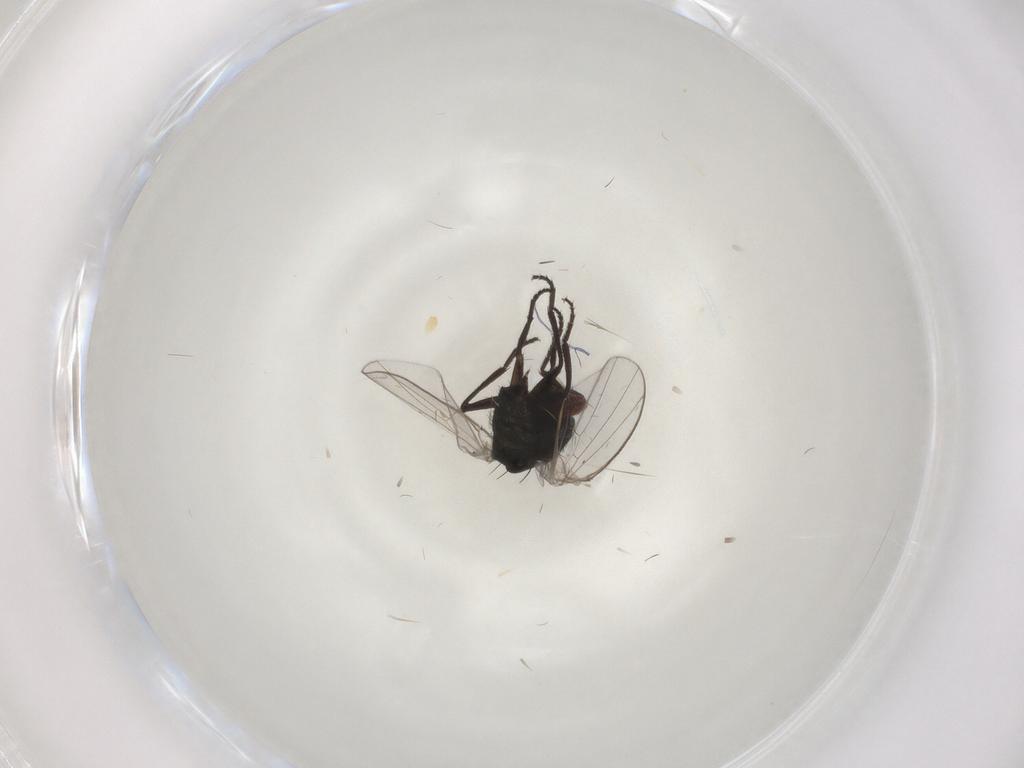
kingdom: Animalia
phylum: Arthropoda
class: Insecta
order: Diptera
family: Agromyzidae
